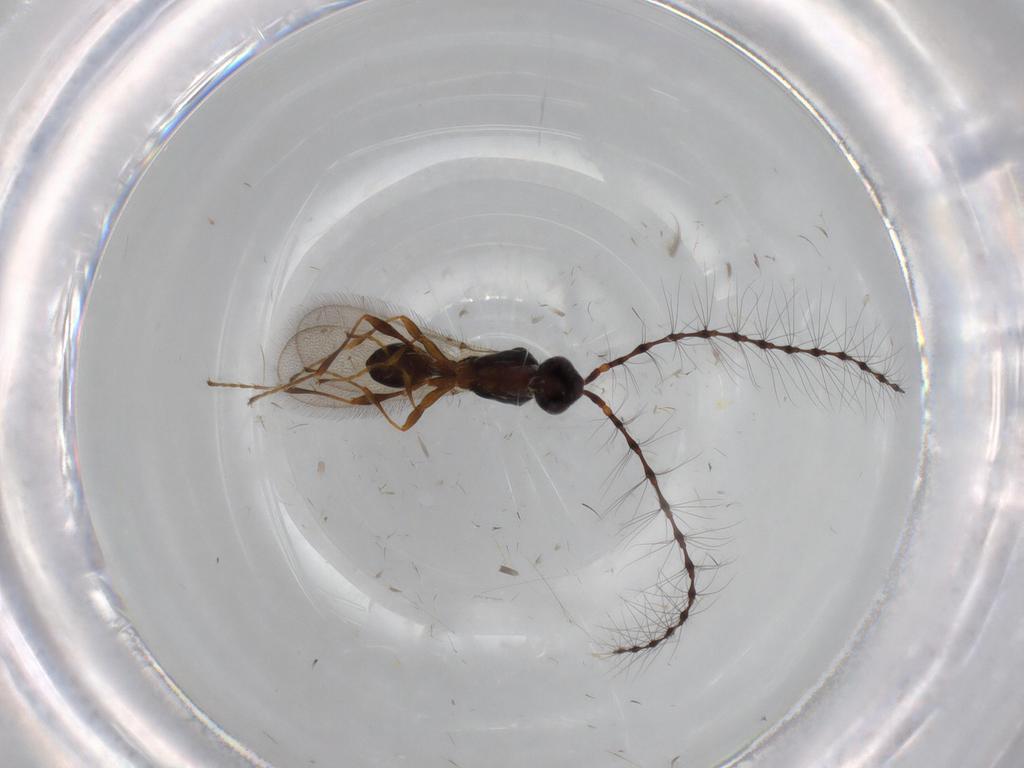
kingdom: Animalia
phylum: Arthropoda
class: Insecta
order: Hymenoptera
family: Diapriidae
